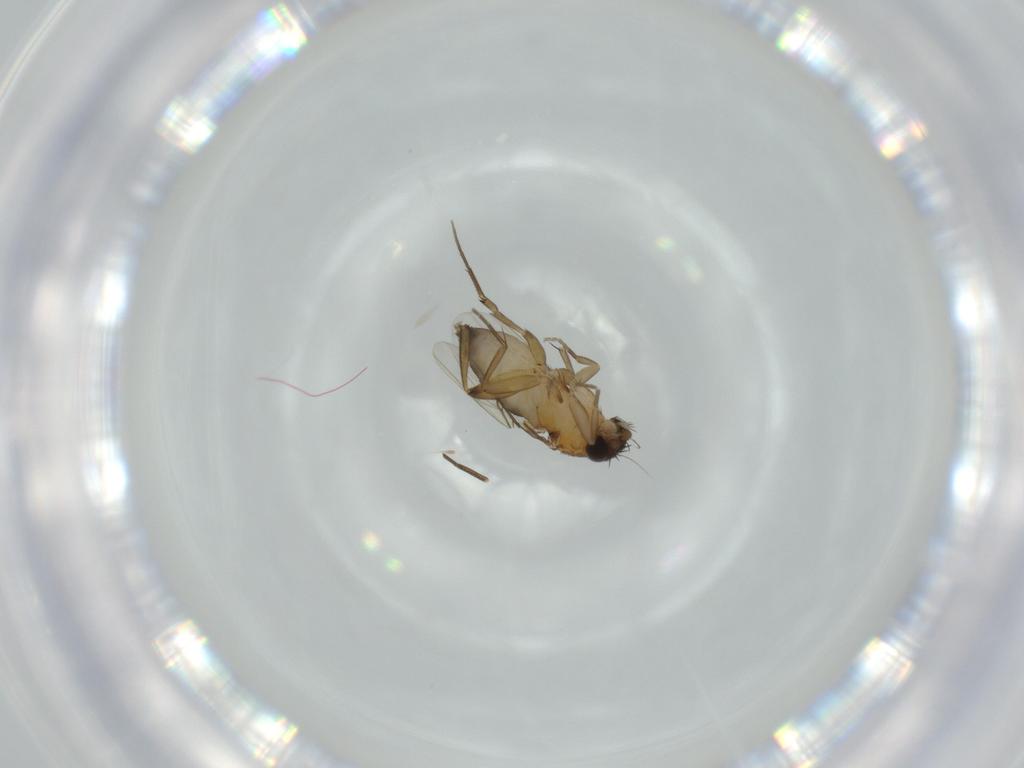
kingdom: Animalia
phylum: Arthropoda
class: Insecta
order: Diptera
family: Phoridae
